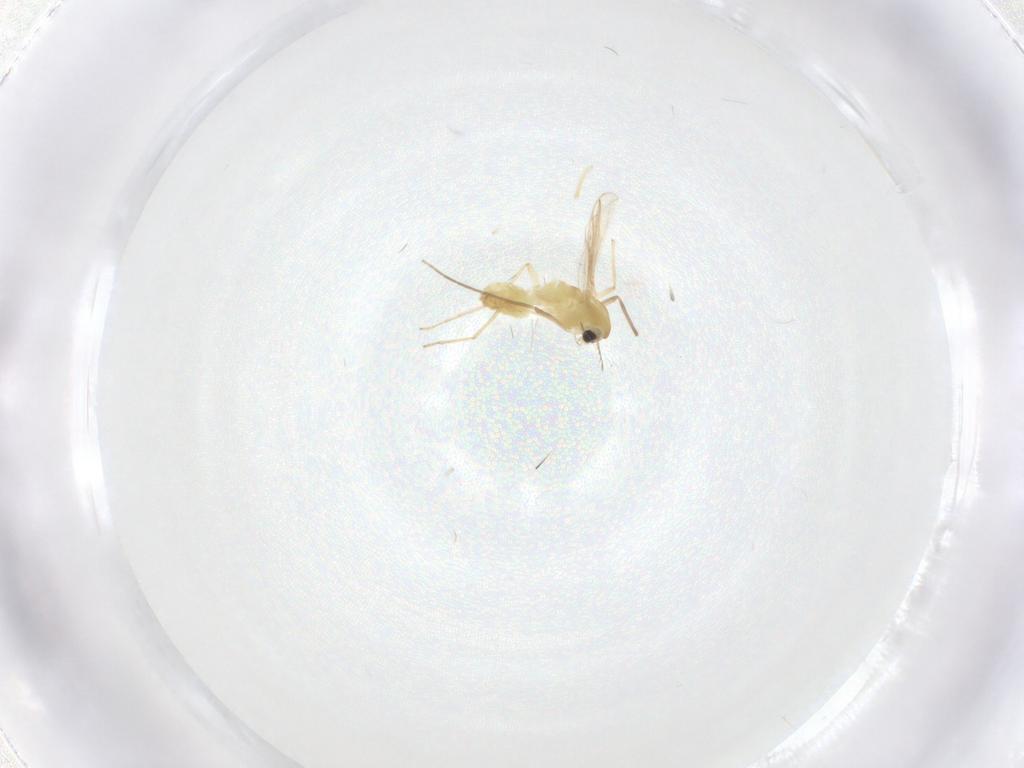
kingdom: Animalia
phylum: Arthropoda
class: Insecta
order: Diptera
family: Chironomidae
